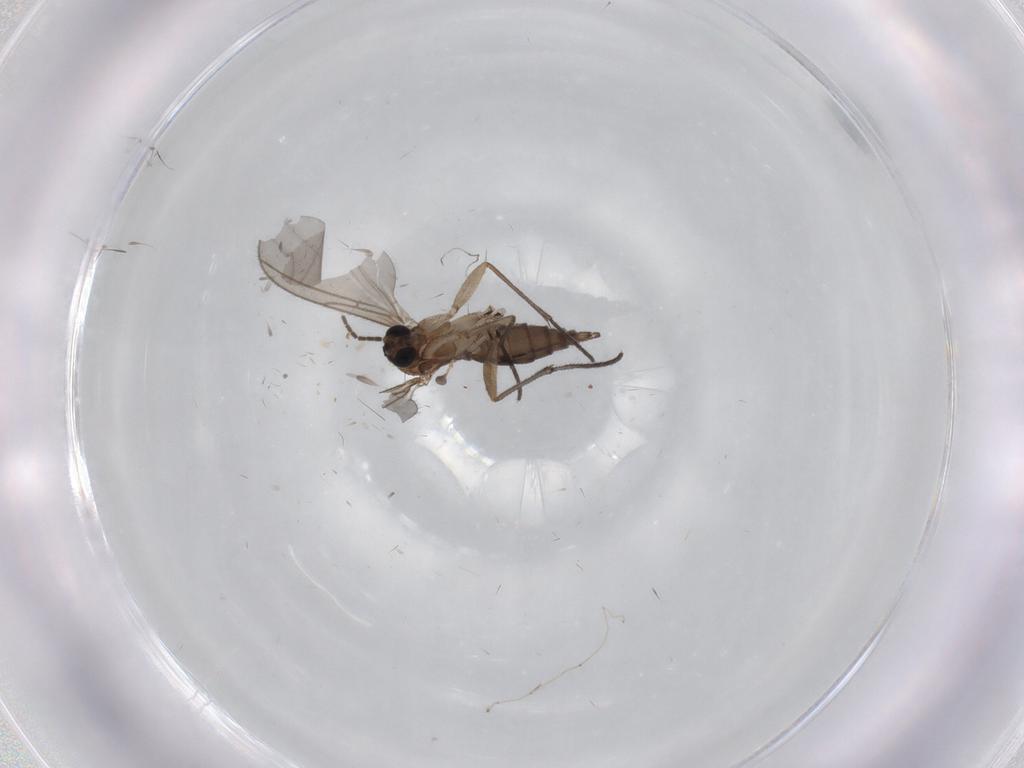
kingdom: Animalia
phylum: Arthropoda
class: Insecta
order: Diptera
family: Sciaridae
